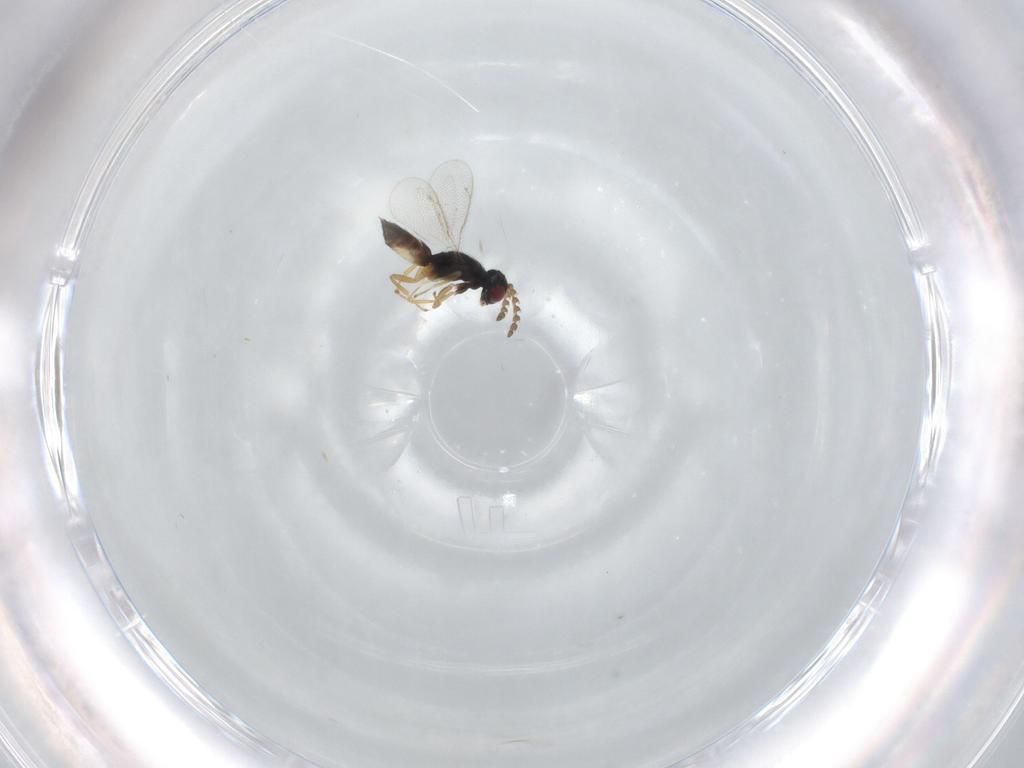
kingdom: Animalia
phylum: Arthropoda
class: Insecta
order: Hymenoptera
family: Eulophidae
